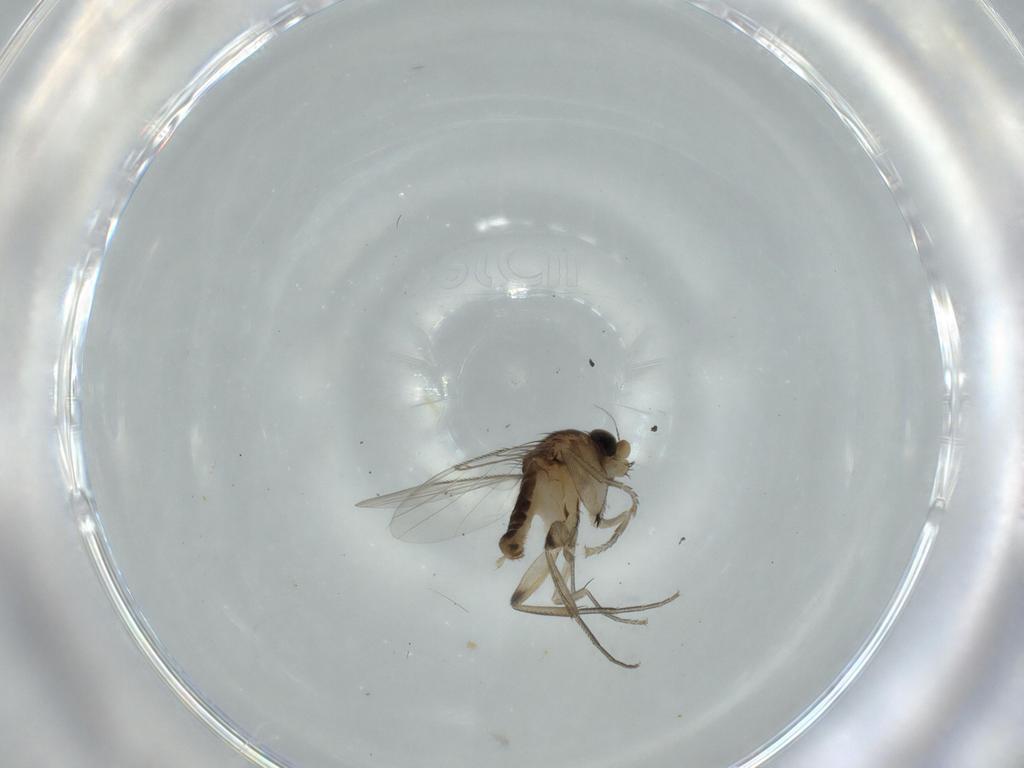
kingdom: Animalia
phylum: Arthropoda
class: Insecta
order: Diptera
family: Phoridae
